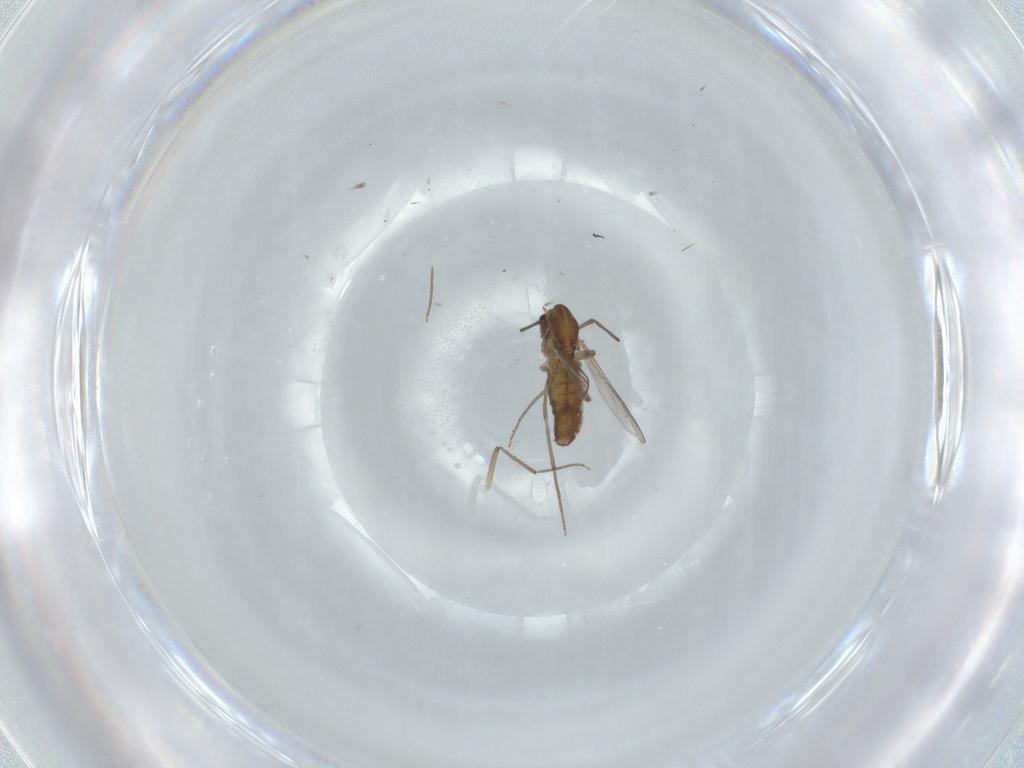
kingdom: Animalia
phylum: Arthropoda
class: Insecta
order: Diptera
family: Chironomidae
